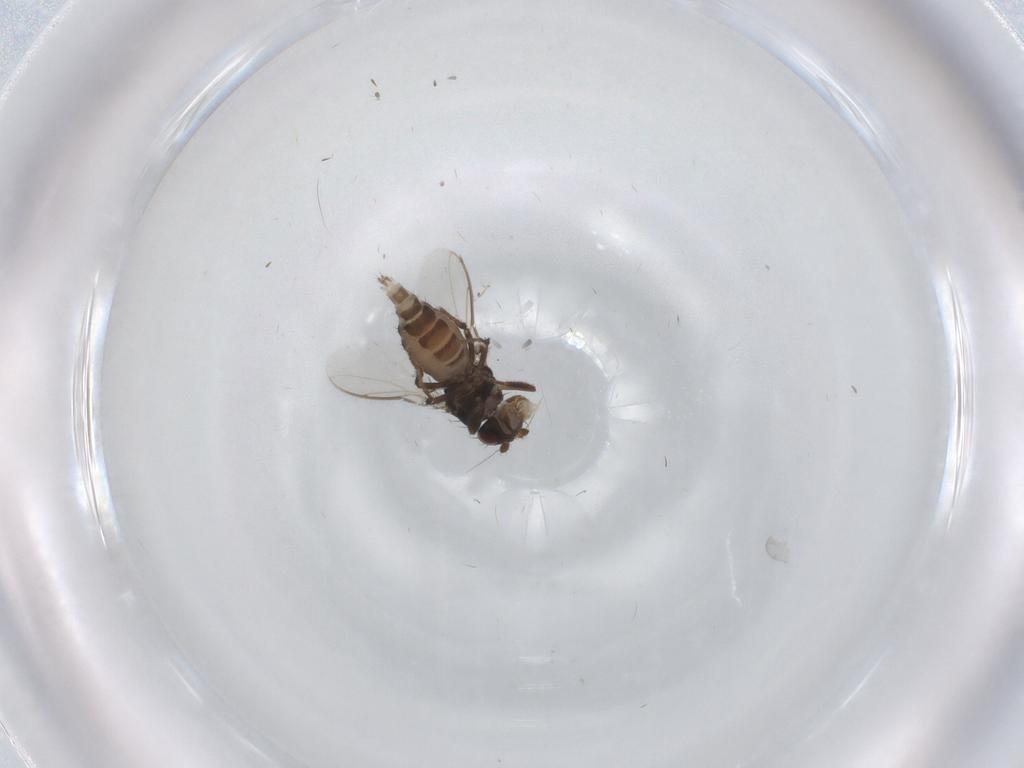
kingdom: Animalia
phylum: Arthropoda
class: Insecta
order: Diptera
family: Sphaeroceridae
